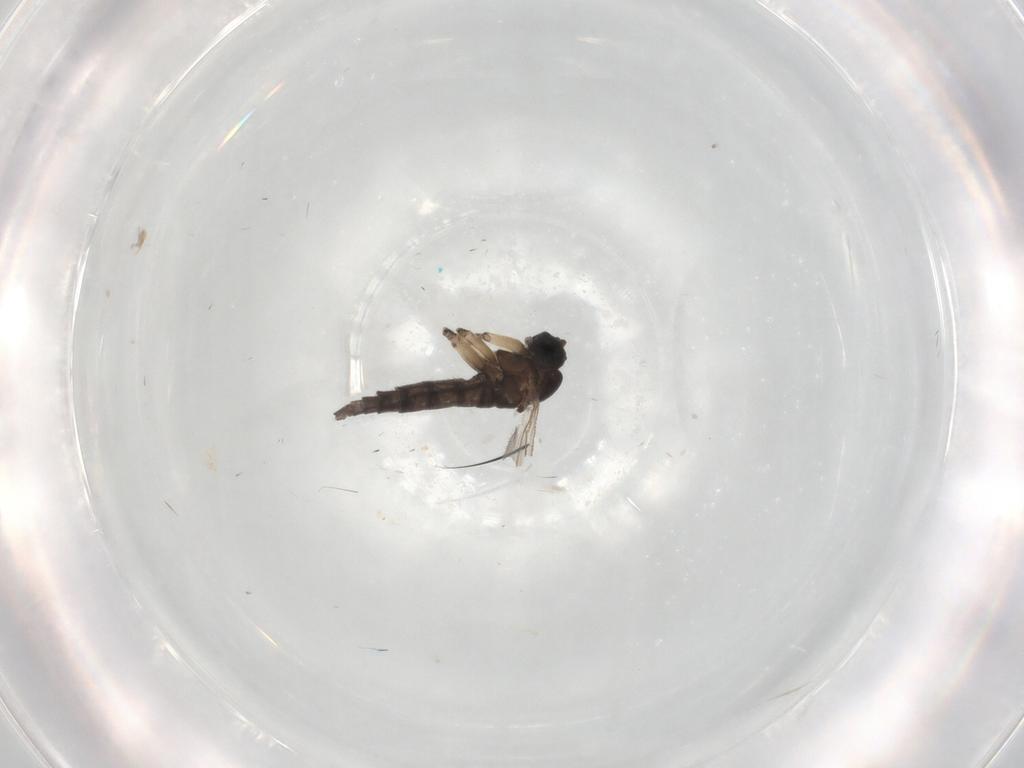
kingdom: Animalia
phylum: Arthropoda
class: Insecta
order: Diptera
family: Sciaridae
